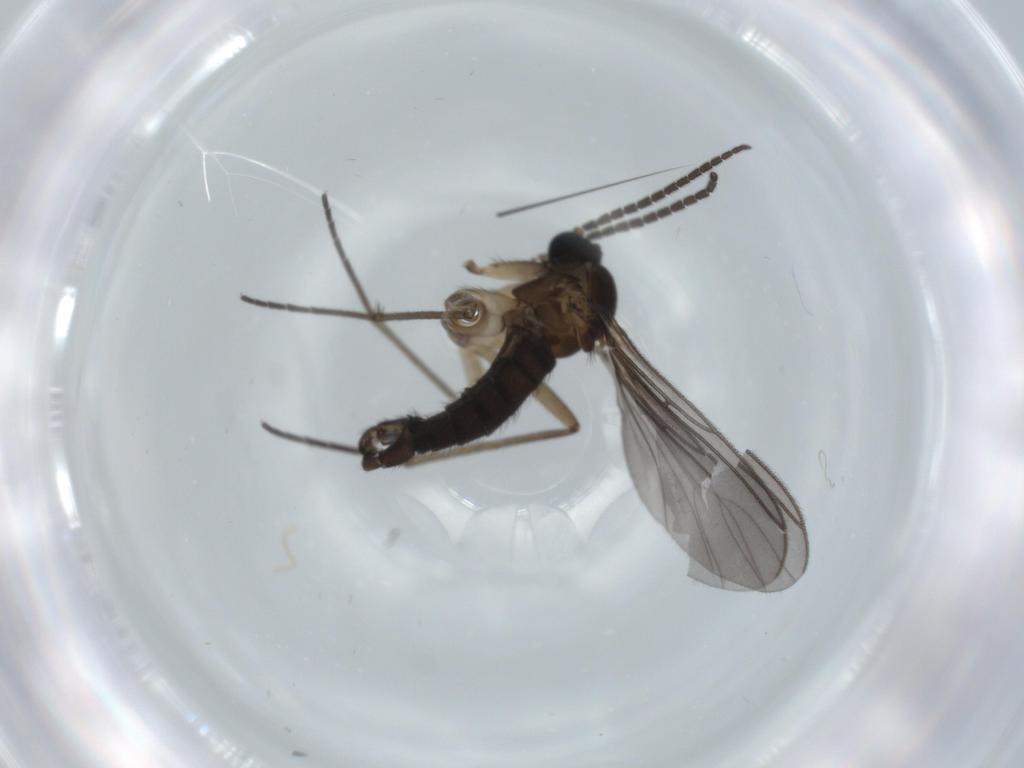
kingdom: Animalia
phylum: Arthropoda
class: Insecta
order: Diptera
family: Sciaridae
